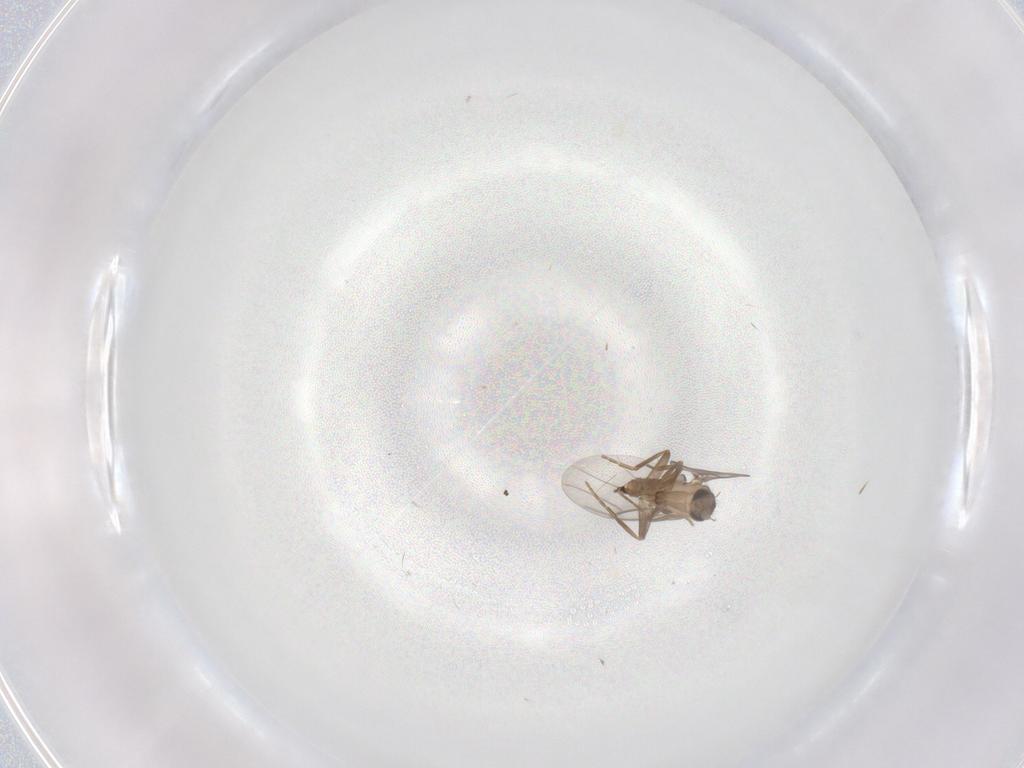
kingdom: Animalia
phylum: Arthropoda
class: Insecta
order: Diptera
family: Cecidomyiidae
